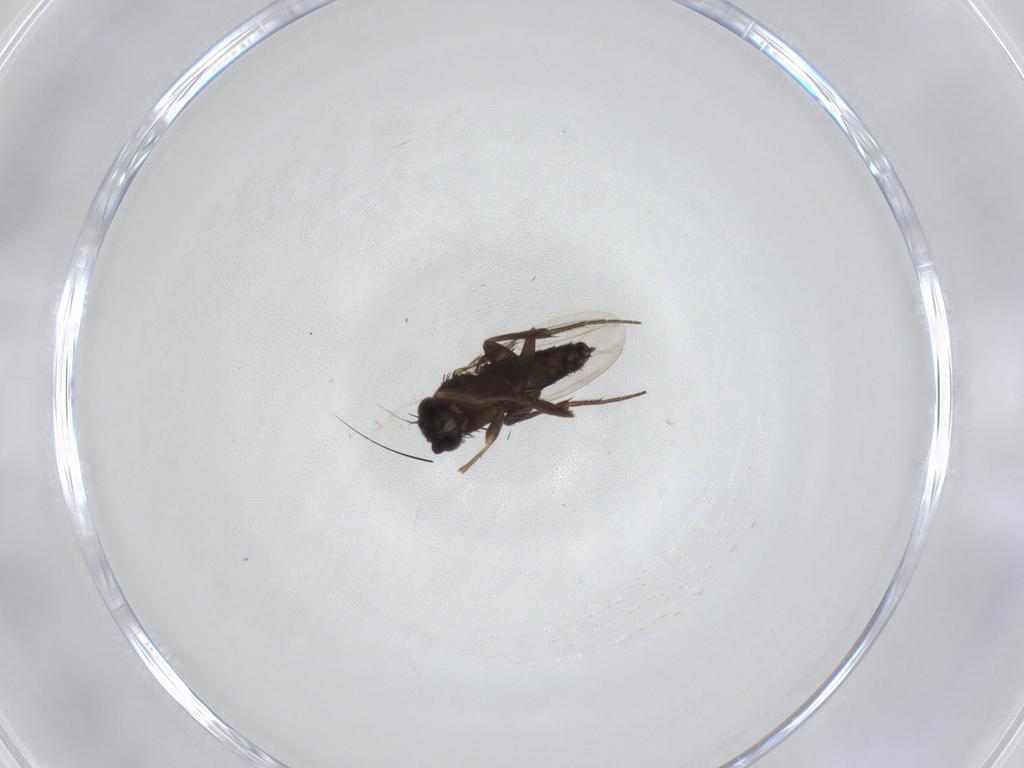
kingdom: Animalia
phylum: Arthropoda
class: Insecta
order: Diptera
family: Phoridae
